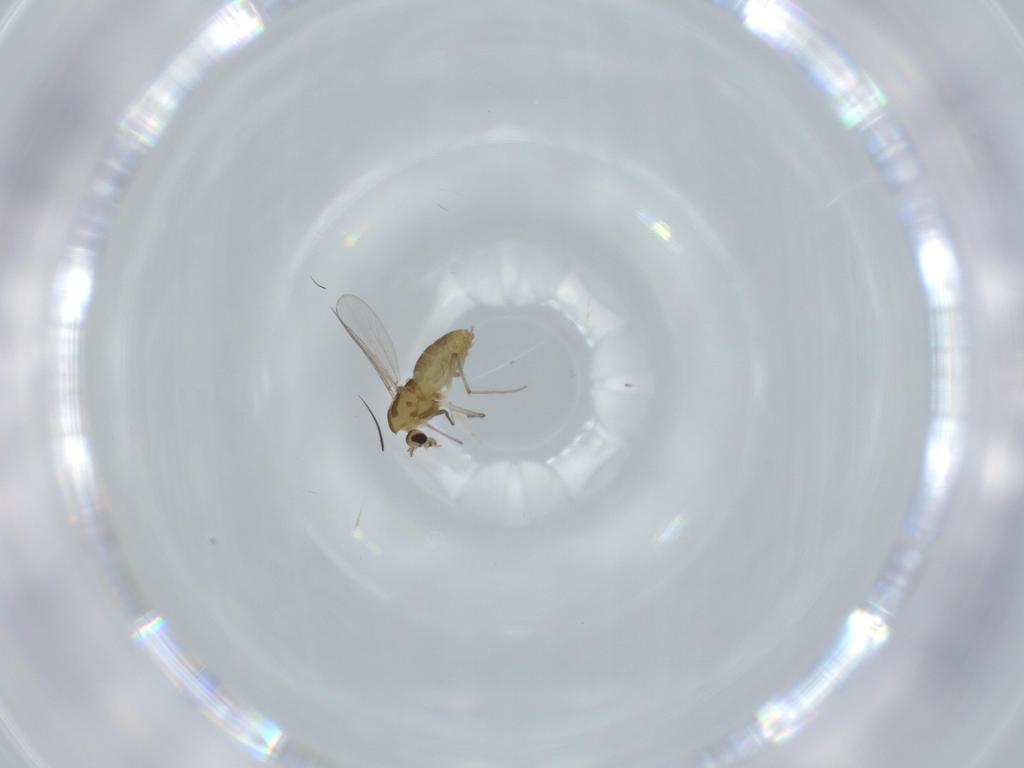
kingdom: Animalia
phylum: Arthropoda
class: Insecta
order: Diptera
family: Chironomidae
